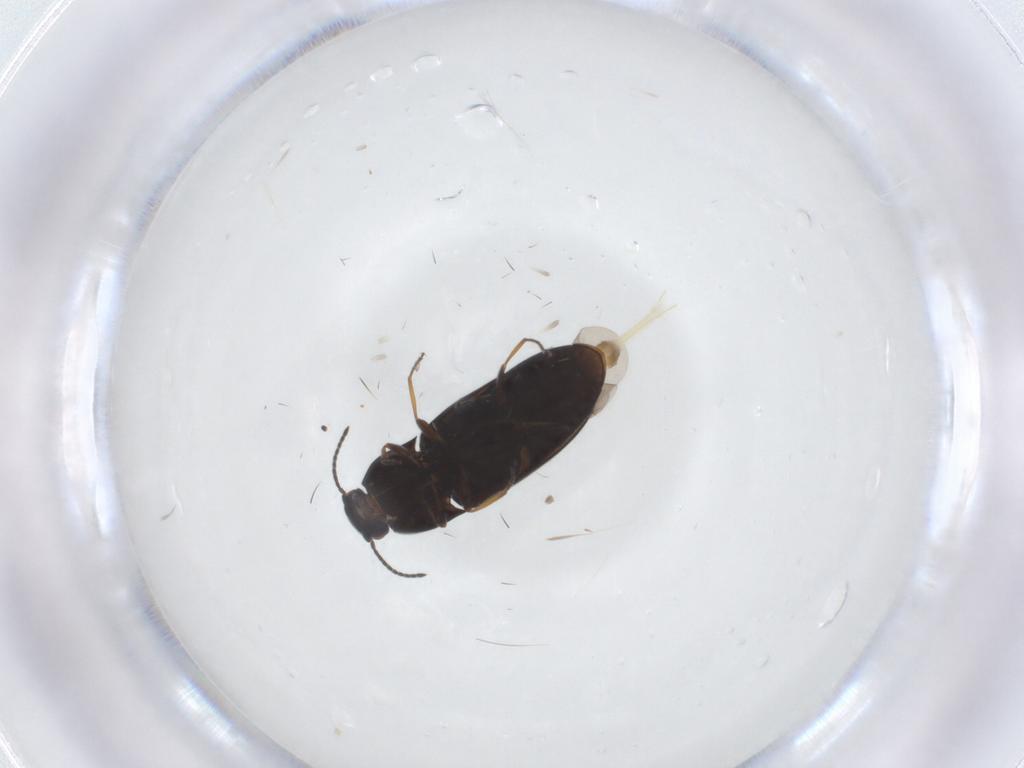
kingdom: Animalia
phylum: Arthropoda
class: Insecta
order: Coleoptera
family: Elateridae
